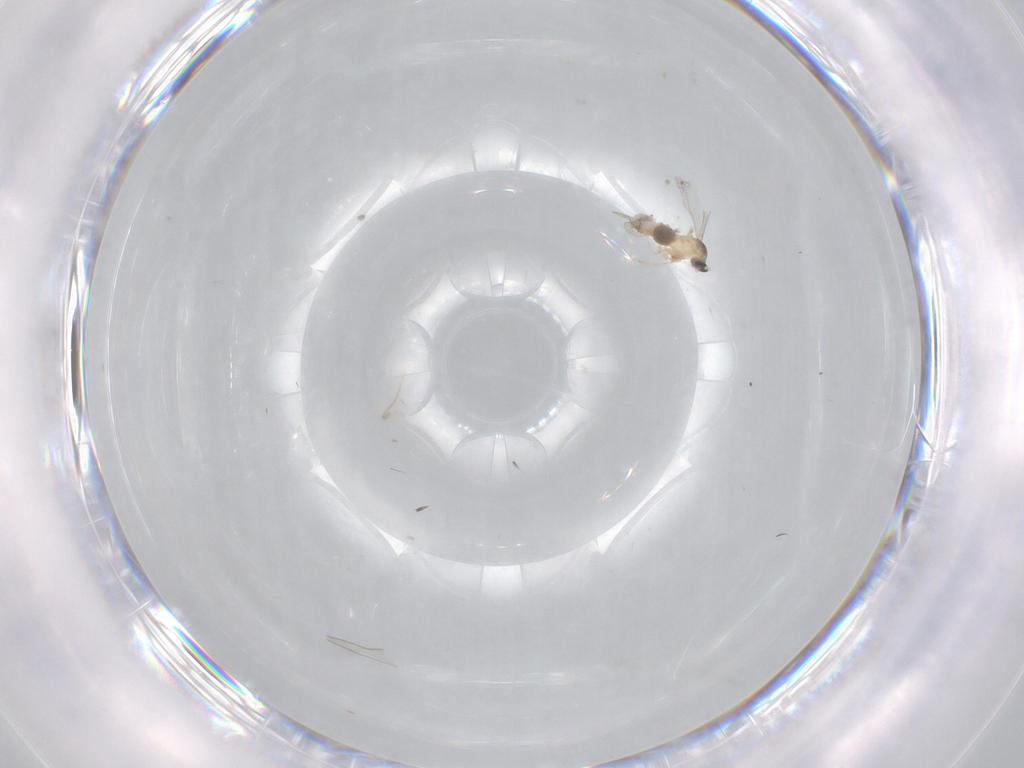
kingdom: Animalia
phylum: Arthropoda
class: Insecta
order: Diptera
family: Cecidomyiidae
